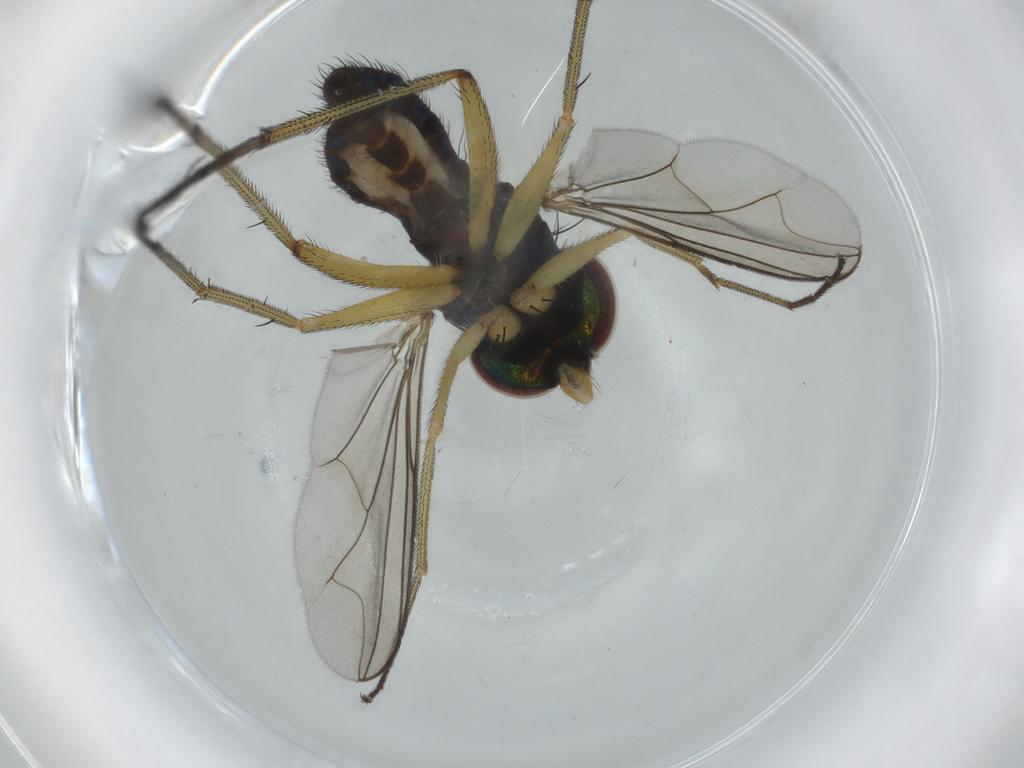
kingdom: Animalia
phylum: Arthropoda
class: Insecta
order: Diptera
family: Dolichopodidae
